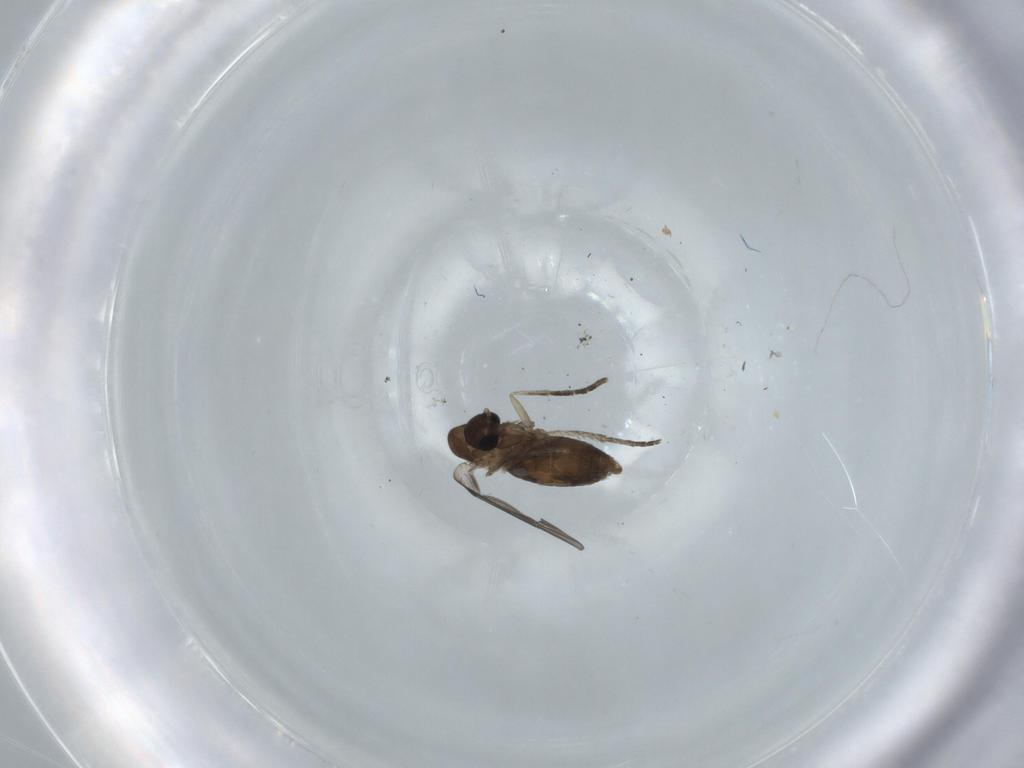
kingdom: Animalia
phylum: Arthropoda
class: Insecta
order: Diptera
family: Psychodidae
